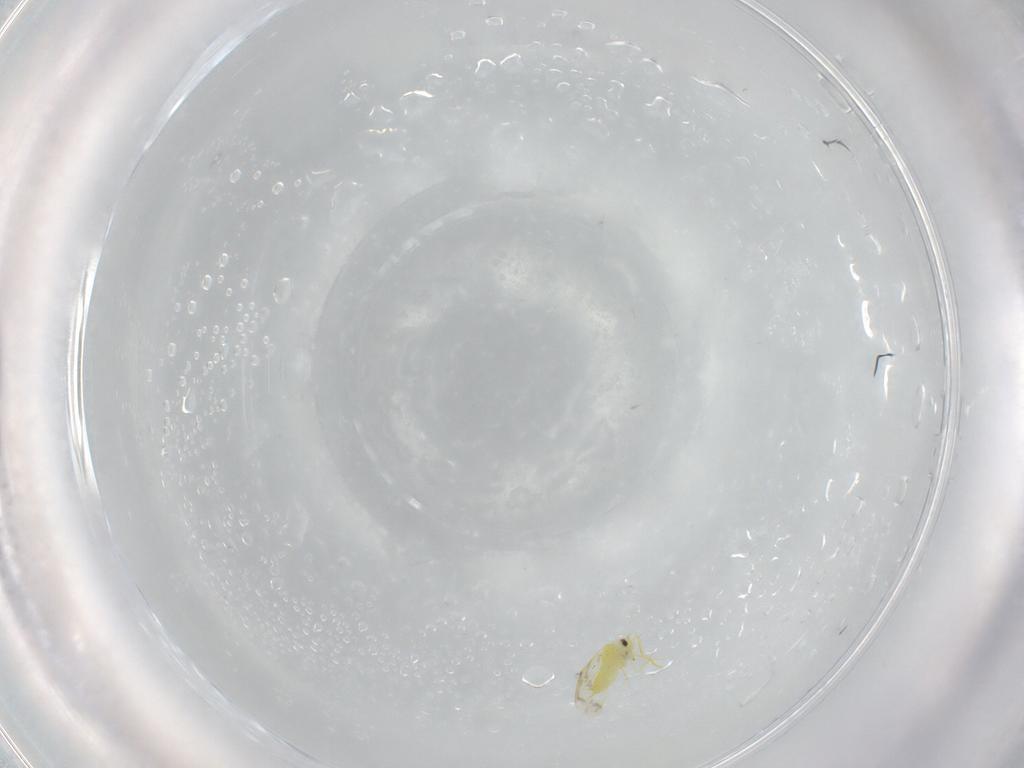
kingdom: Animalia
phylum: Arthropoda
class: Insecta
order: Hemiptera
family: Aleyrodidae
